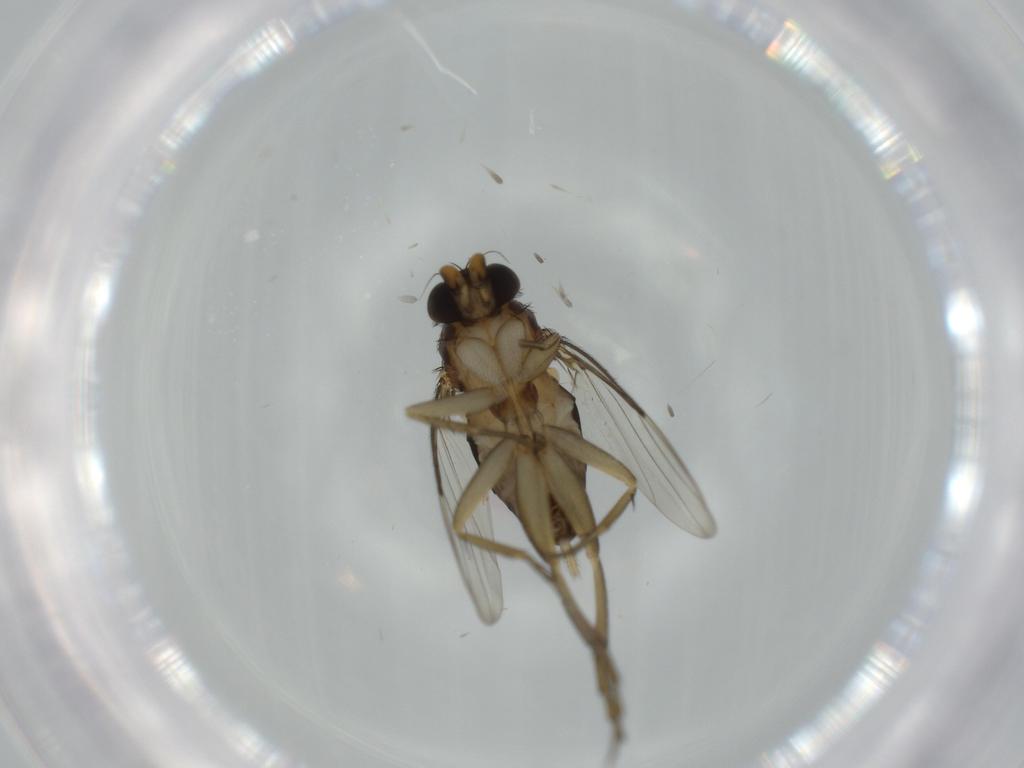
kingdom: Animalia
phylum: Arthropoda
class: Insecta
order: Diptera
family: Phoridae
